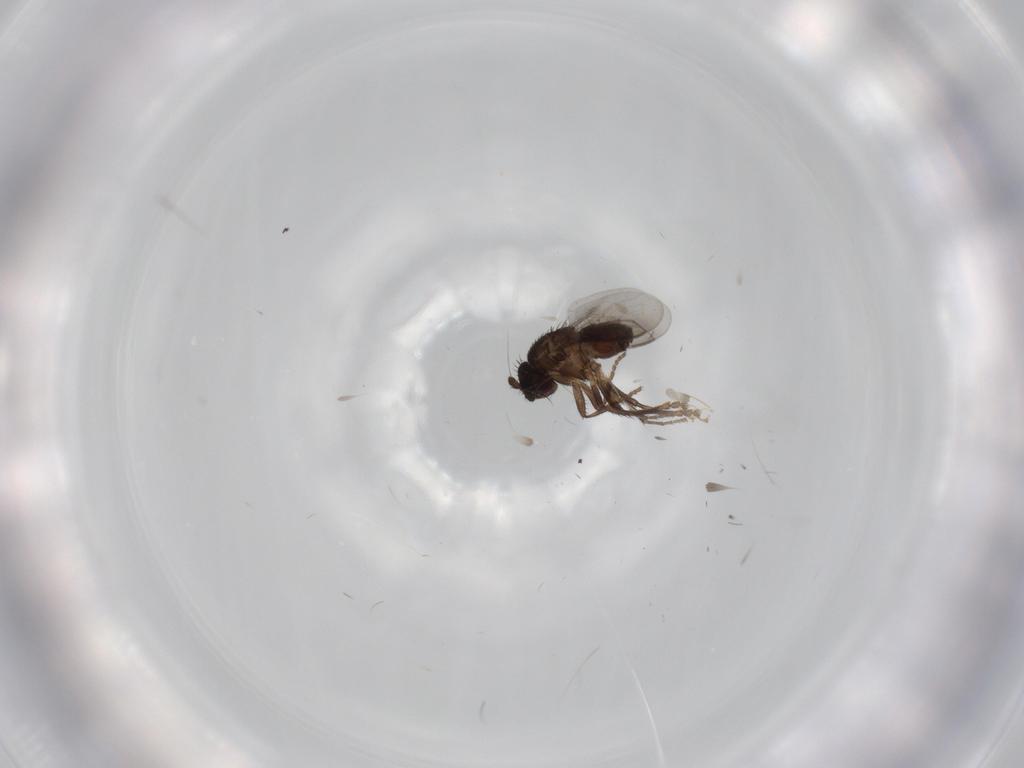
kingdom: Animalia
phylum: Arthropoda
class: Insecta
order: Diptera
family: Sphaeroceridae
